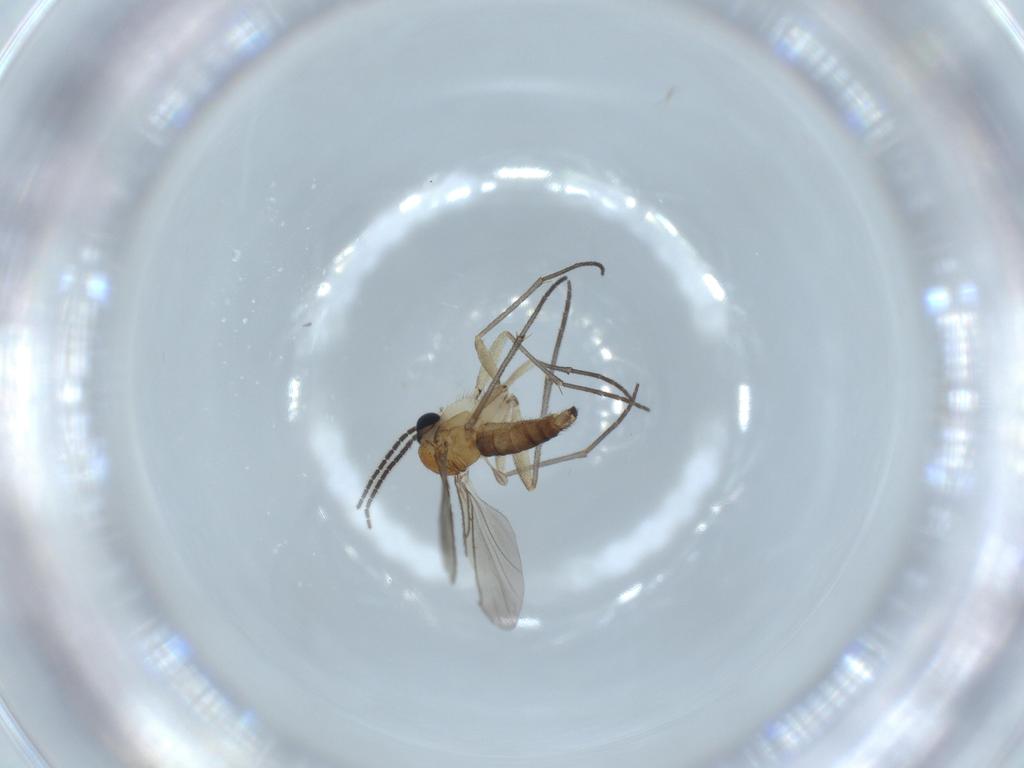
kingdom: Animalia
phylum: Arthropoda
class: Insecta
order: Diptera
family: Sciaridae
